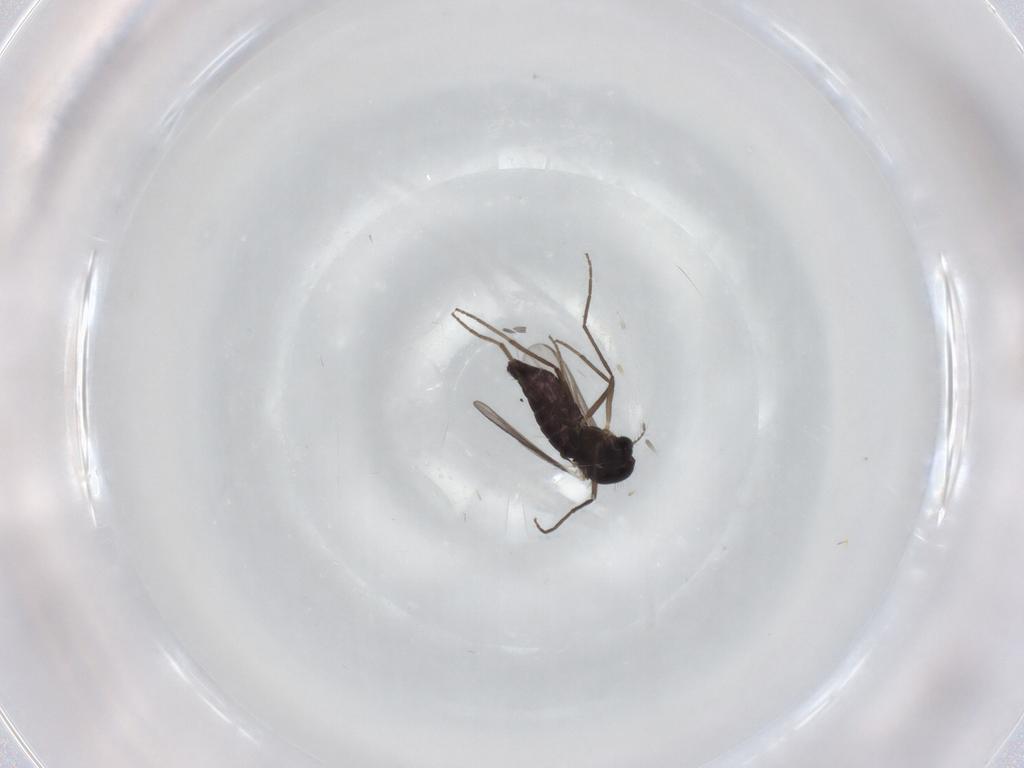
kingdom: Animalia
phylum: Arthropoda
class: Insecta
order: Diptera
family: Chironomidae
